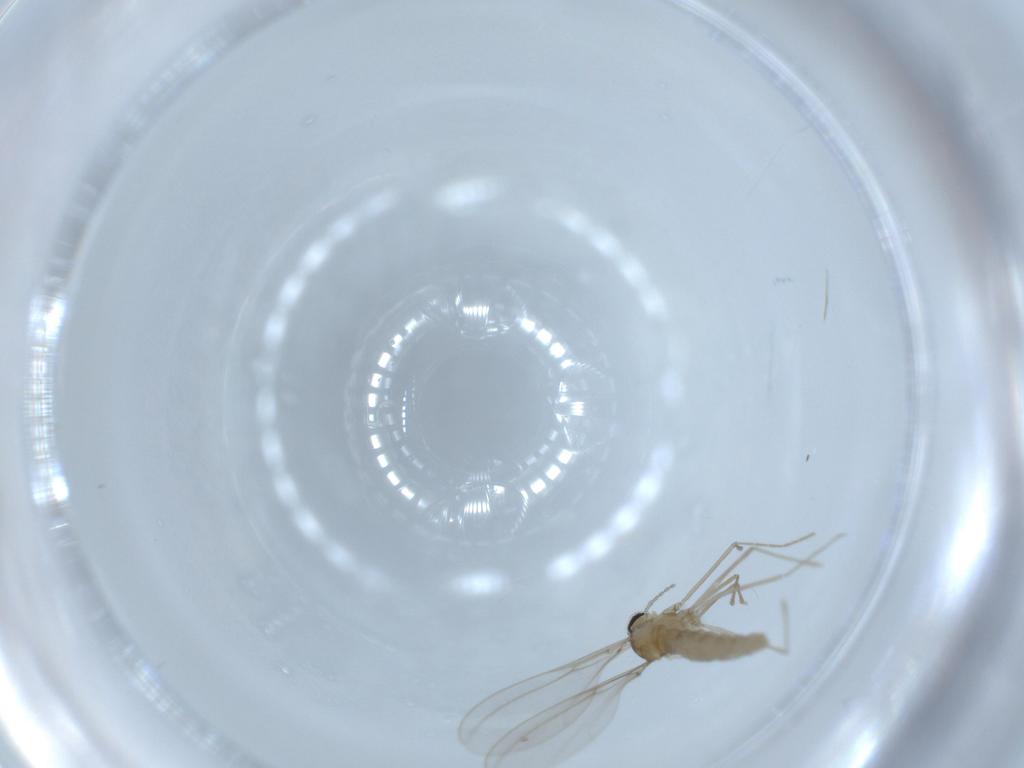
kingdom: Animalia
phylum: Arthropoda
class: Insecta
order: Diptera
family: Cecidomyiidae
